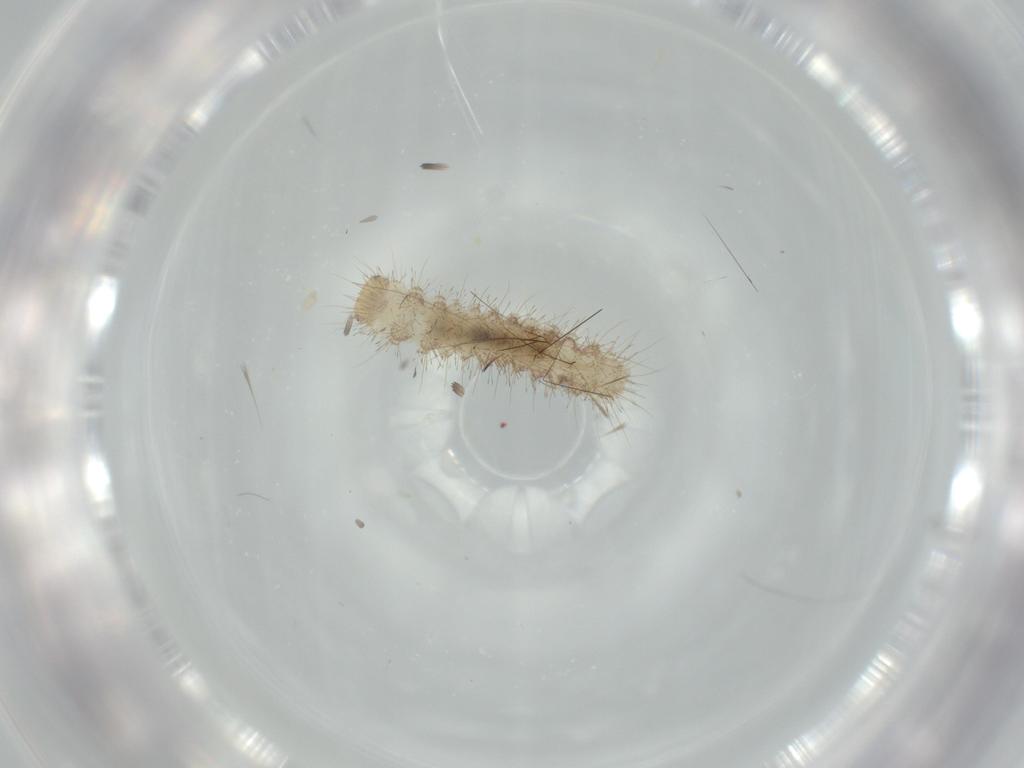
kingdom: Animalia
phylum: Arthropoda
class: Insecta
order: Lepidoptera
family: Erebidae
